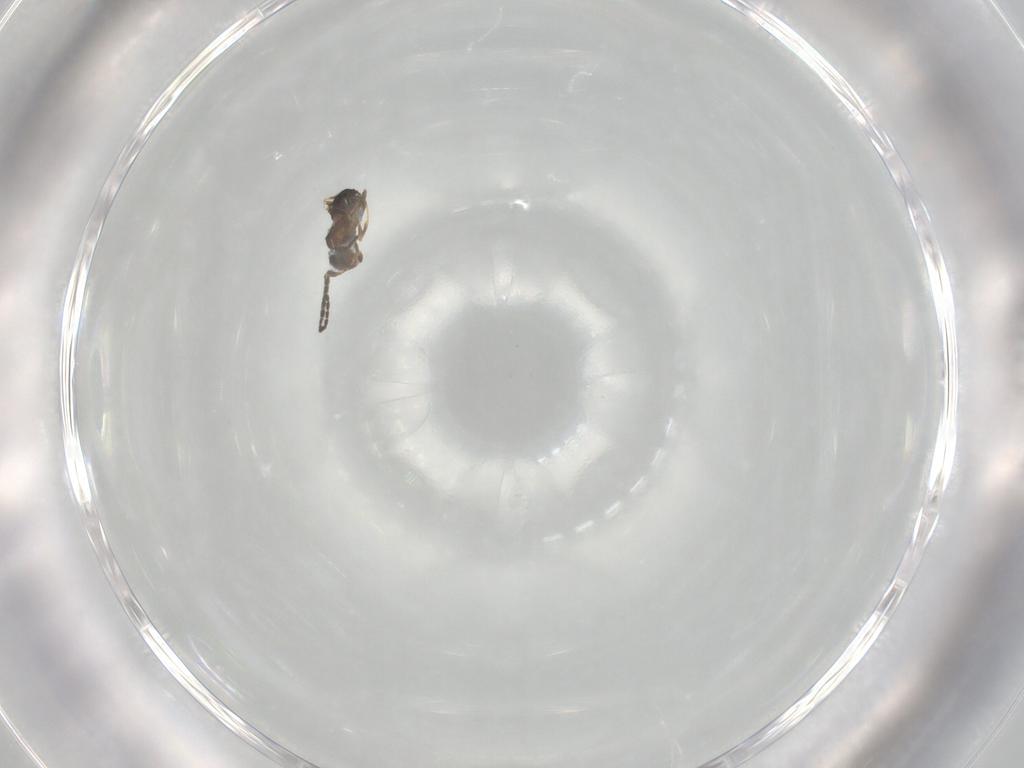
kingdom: Animalia
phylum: Arthropoda
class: Insecta
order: Hymenoptera
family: Scelionidae
